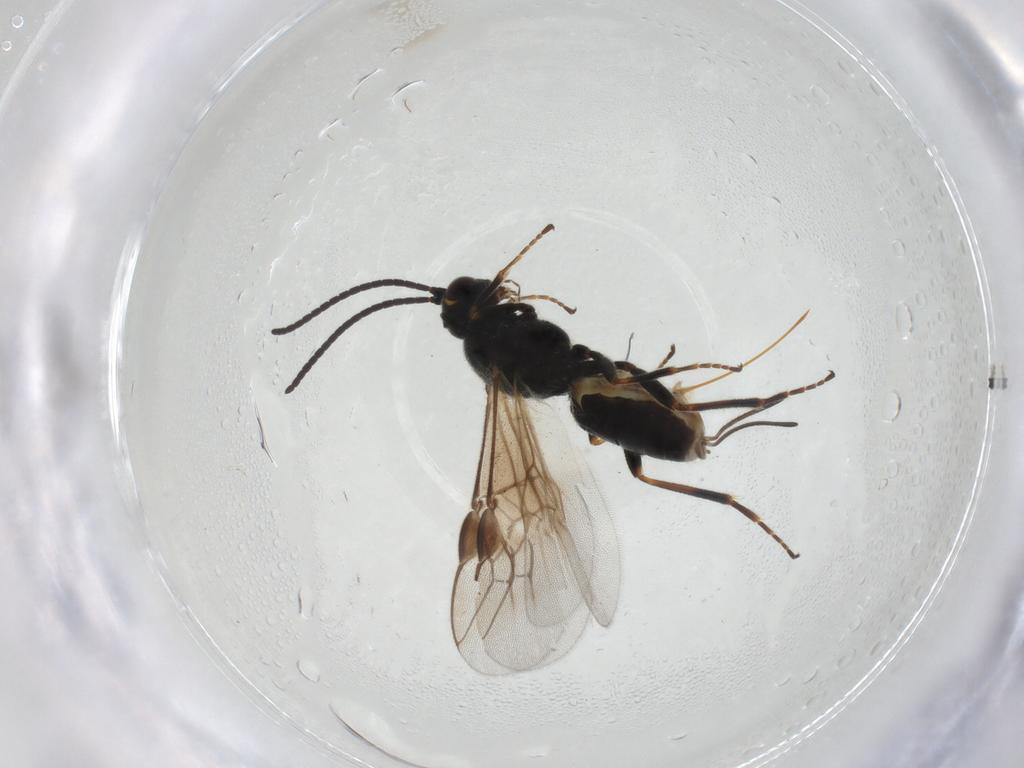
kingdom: Animalia
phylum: Arthropoda
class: Insecta
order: Hymenoptera
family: Braconidae
